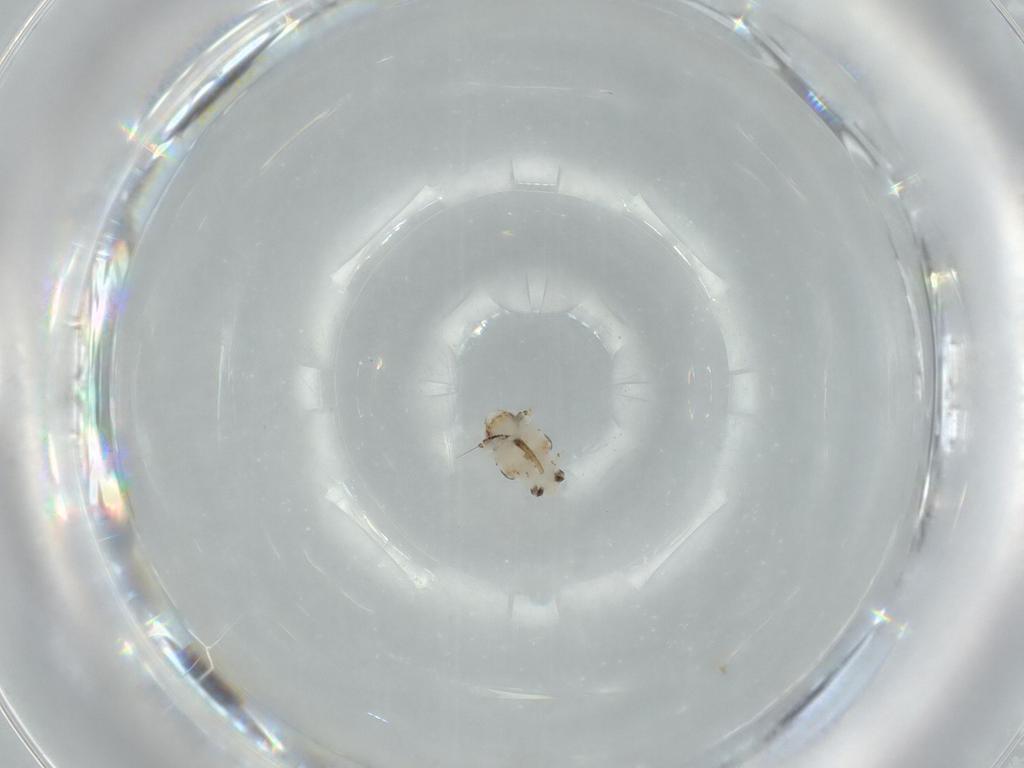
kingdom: Animalia
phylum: Arthropoda
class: Insecta
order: Hemiptera
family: Nogodinidae
